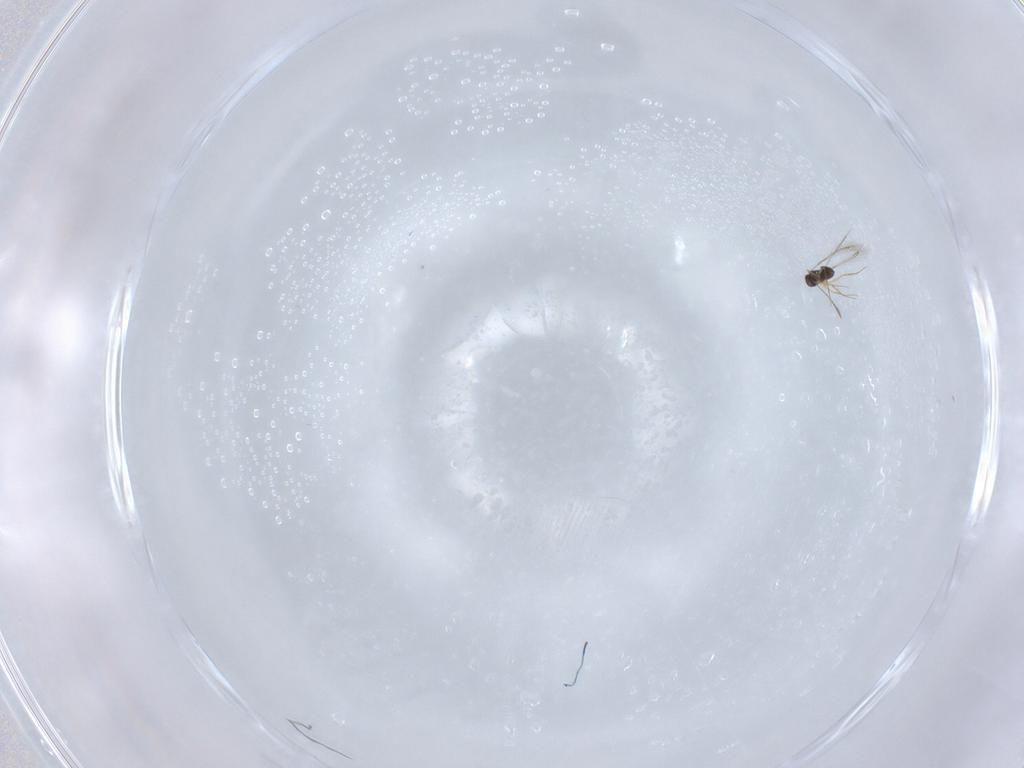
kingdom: Animalia
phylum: Arthropoda
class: Insecta
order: Hymenoptera
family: Mymaridae
